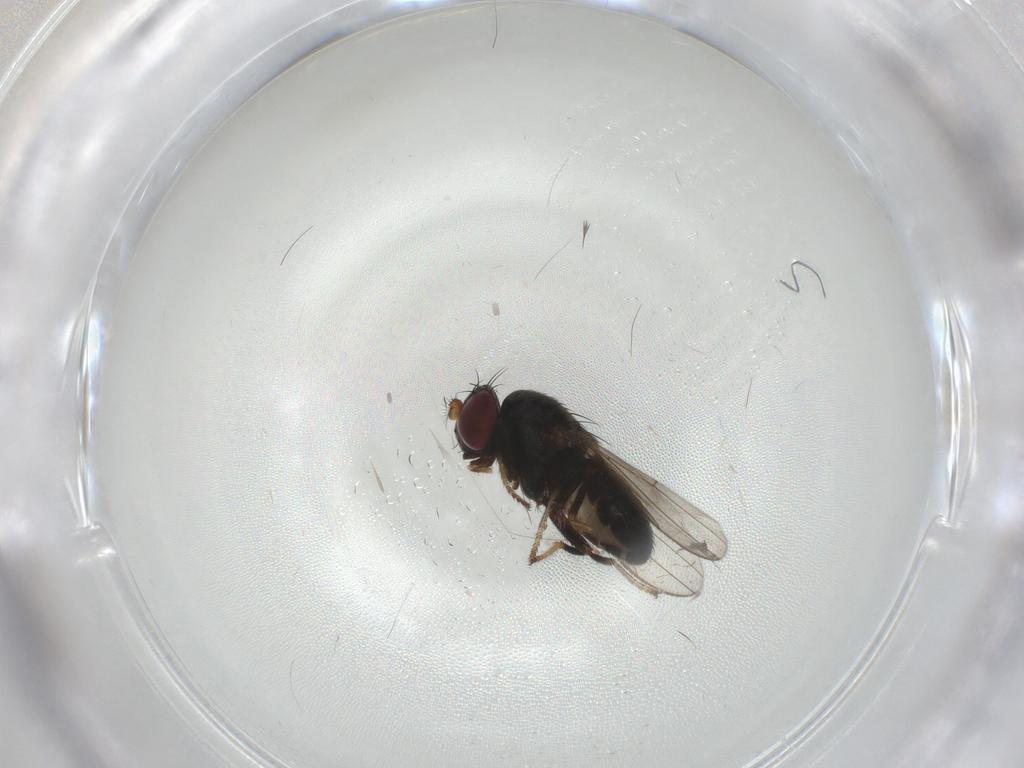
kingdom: Animalia
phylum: Arthropoda
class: Insecta
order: Diptera
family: Ephydridae
